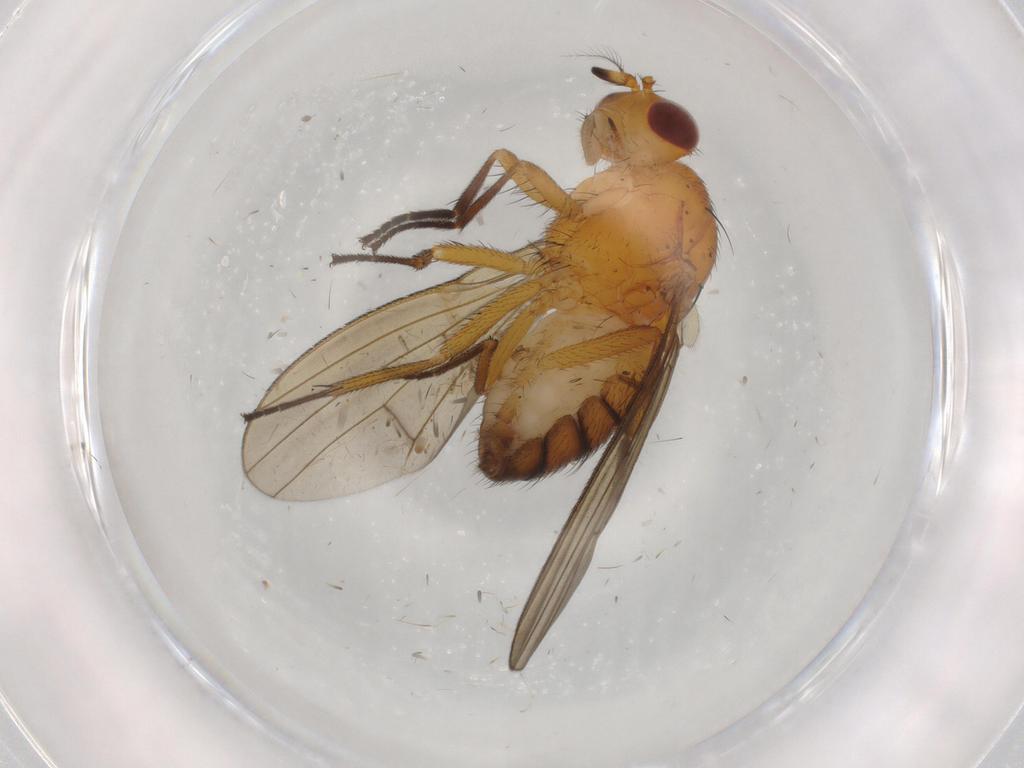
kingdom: Animalia
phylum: Arthropoda
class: Insecta
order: Diptera
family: Lauxaniidae
